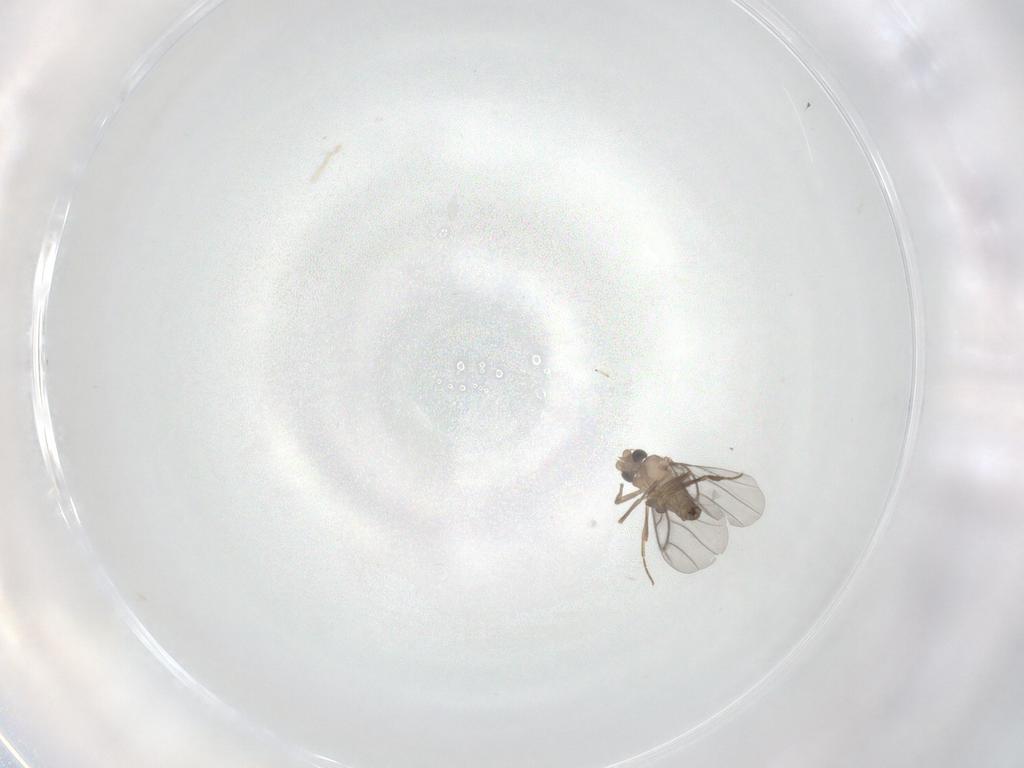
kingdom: Animalia
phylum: Arthropoda
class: Insecta
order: Diptera
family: Phoridae
